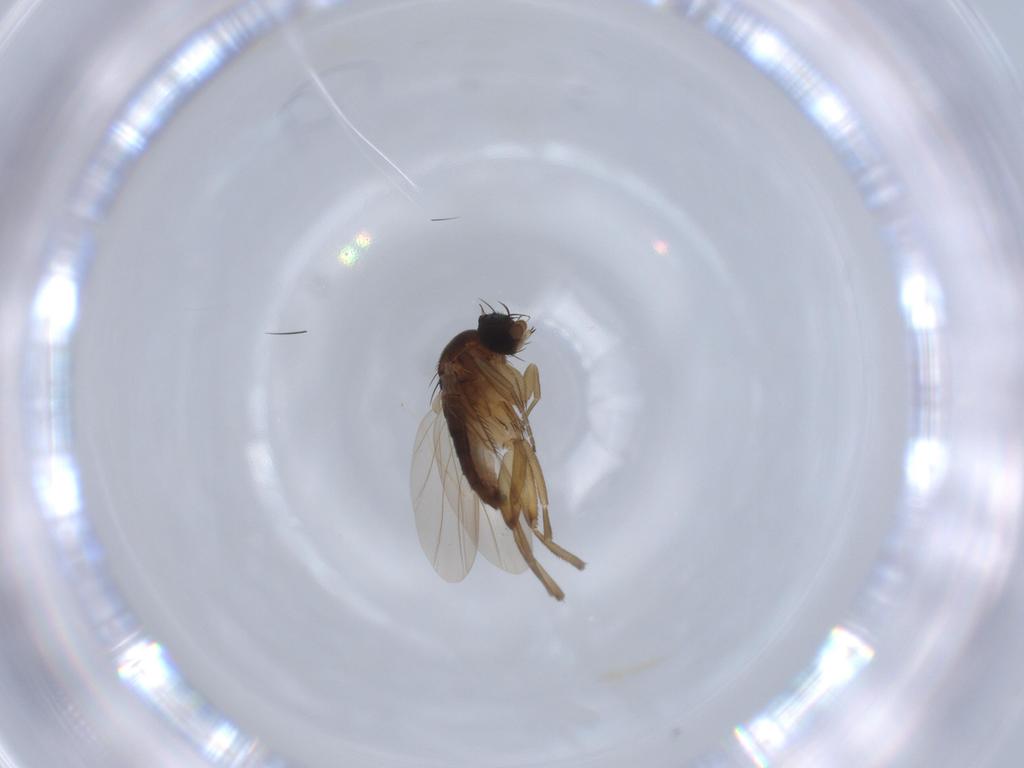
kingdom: Animalia
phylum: Arthropoda
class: Insecta
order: Diptera
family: Phoridae
